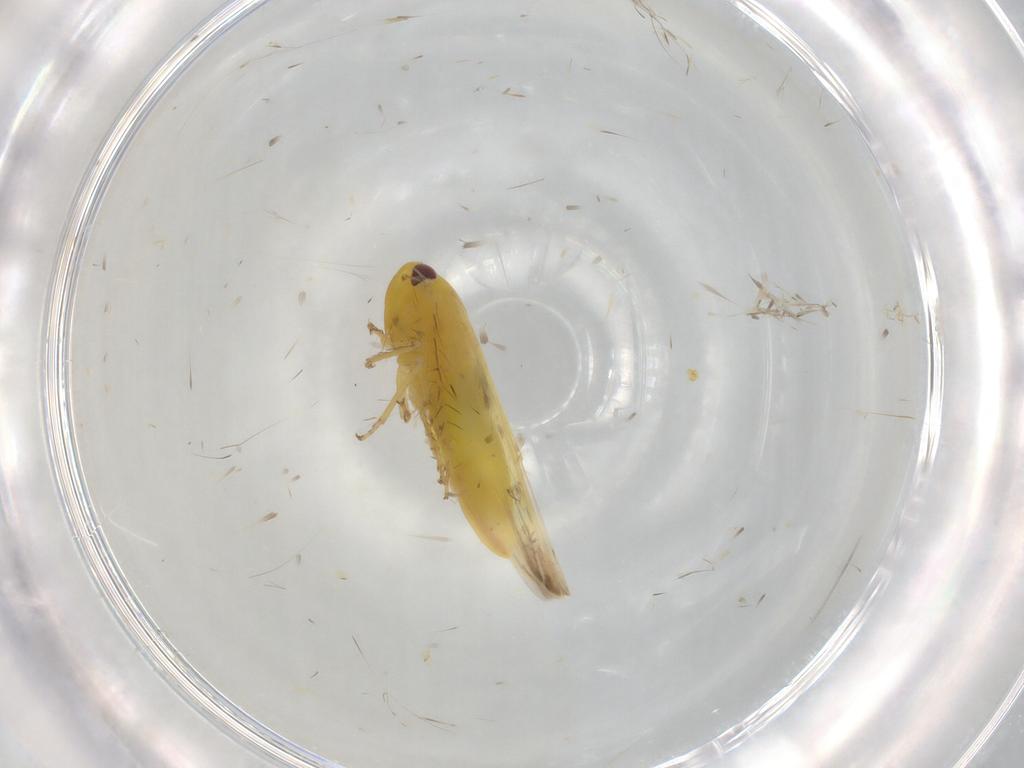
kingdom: Animalia
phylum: Arthropoda
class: Insecta
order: Hemiptera
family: Cicadellidae
